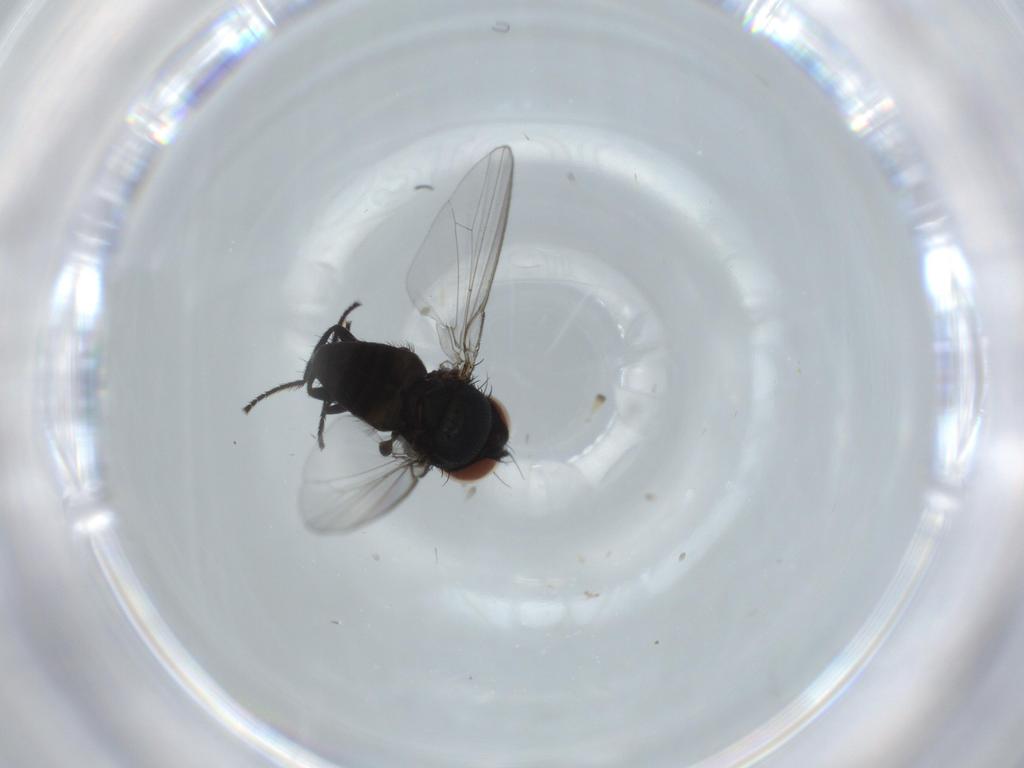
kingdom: Animalia
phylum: Arthropoda
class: Insecta
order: Diptera
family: Milichiidae
